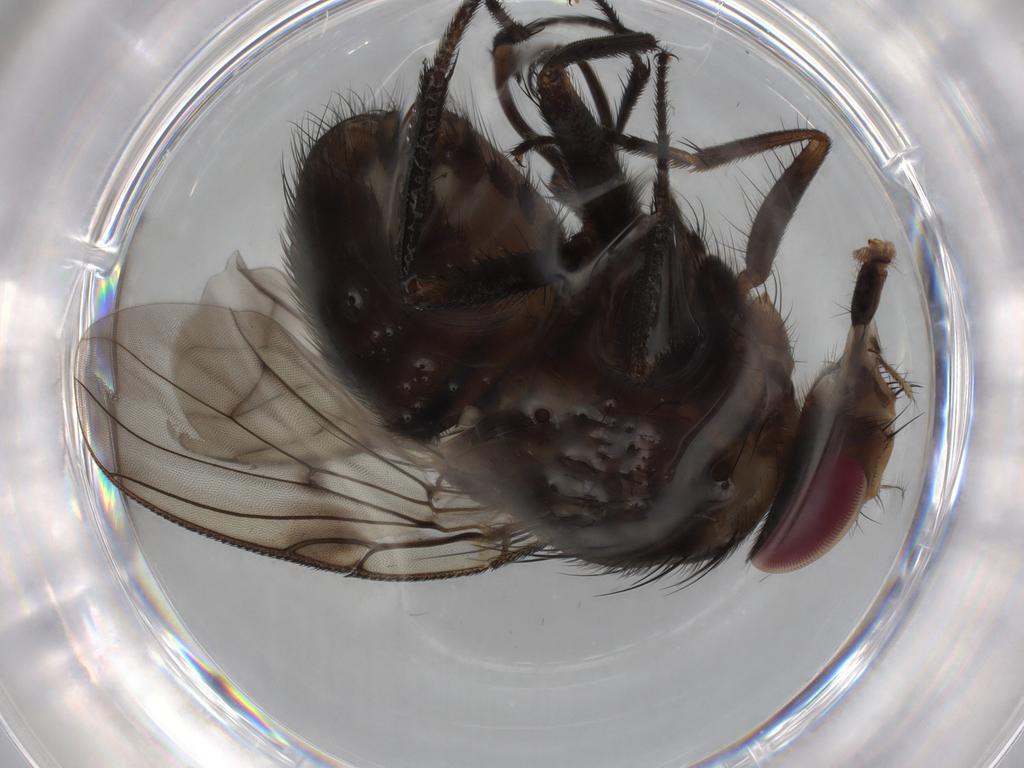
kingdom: Animalia
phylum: Arthropoda
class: Insecta
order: Diptera
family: Muscidae
